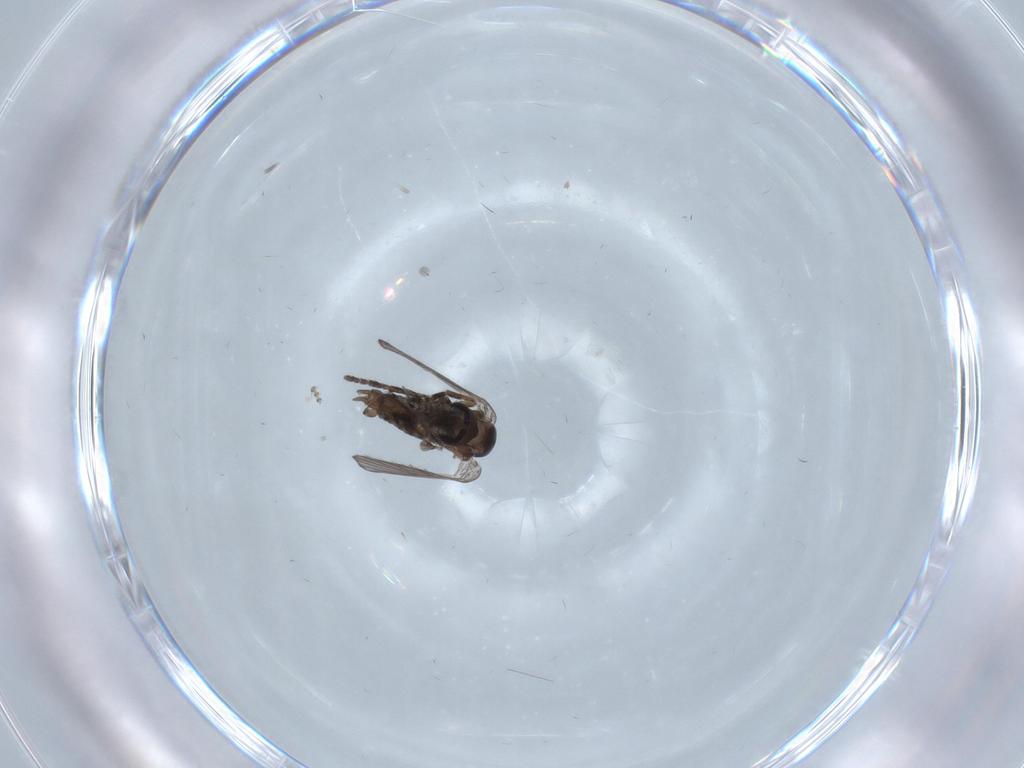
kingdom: Animalia
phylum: Arthropoda
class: Insecta
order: Diptera
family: Psychodidae
